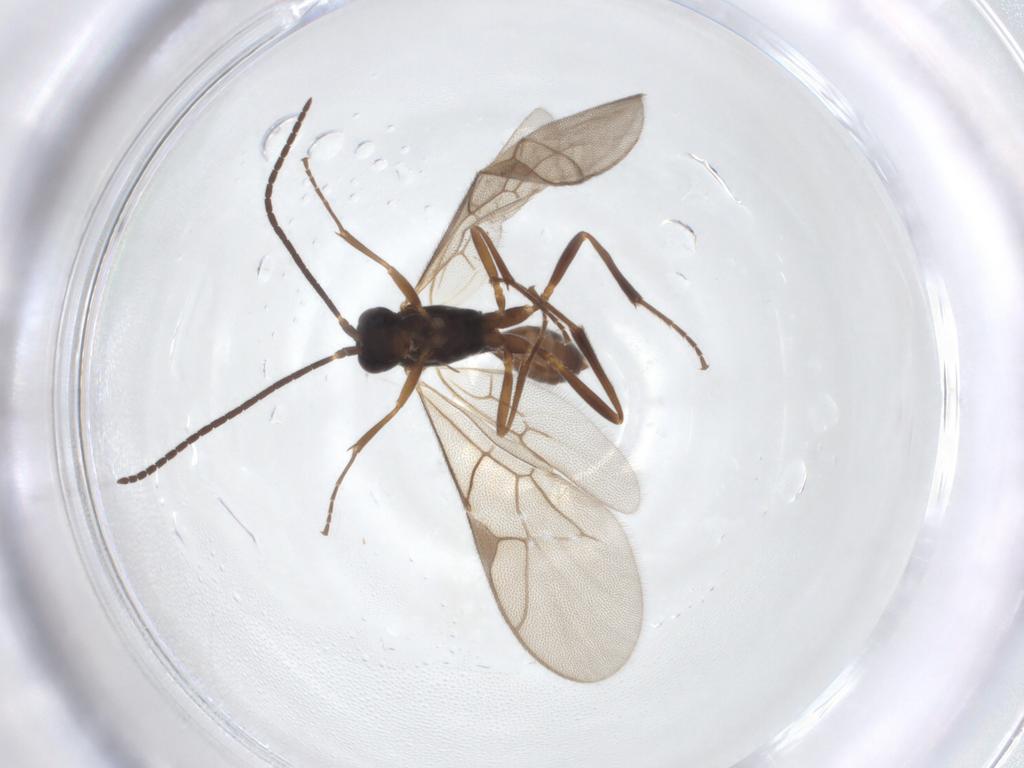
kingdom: Animalia
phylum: Arthropoda
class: Insecta
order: Hymenoptera
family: Ichneumonidae
